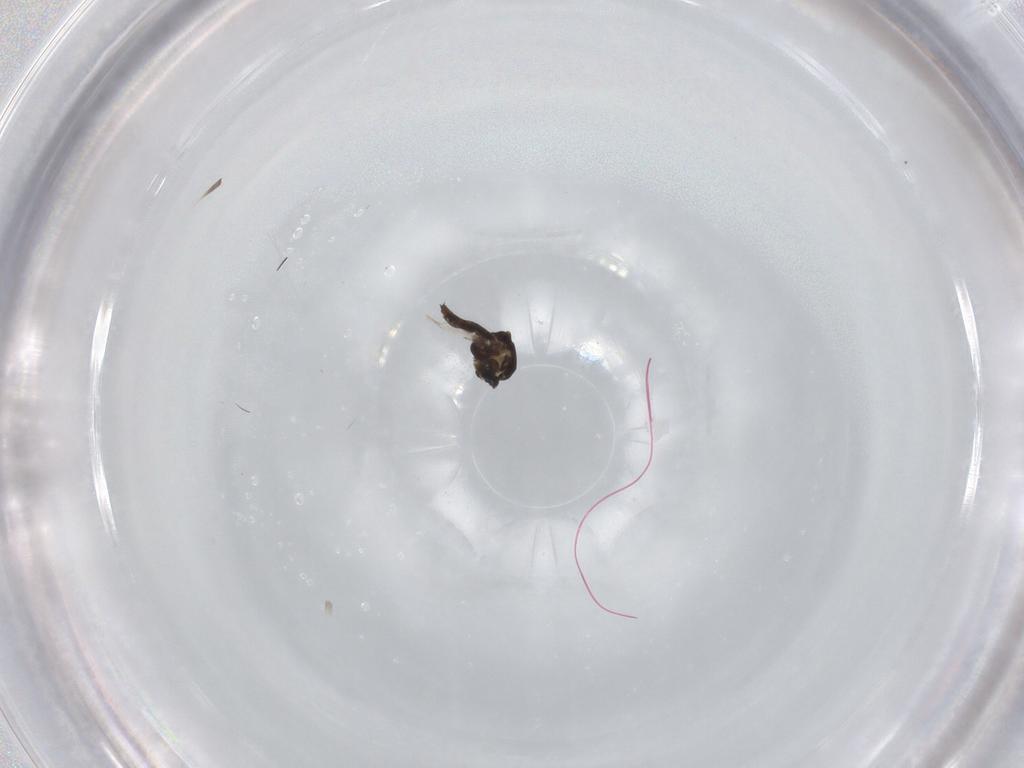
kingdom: Animalia
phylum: Arthropoda
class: Insecta
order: Diptera
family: Ceratopogonidae
